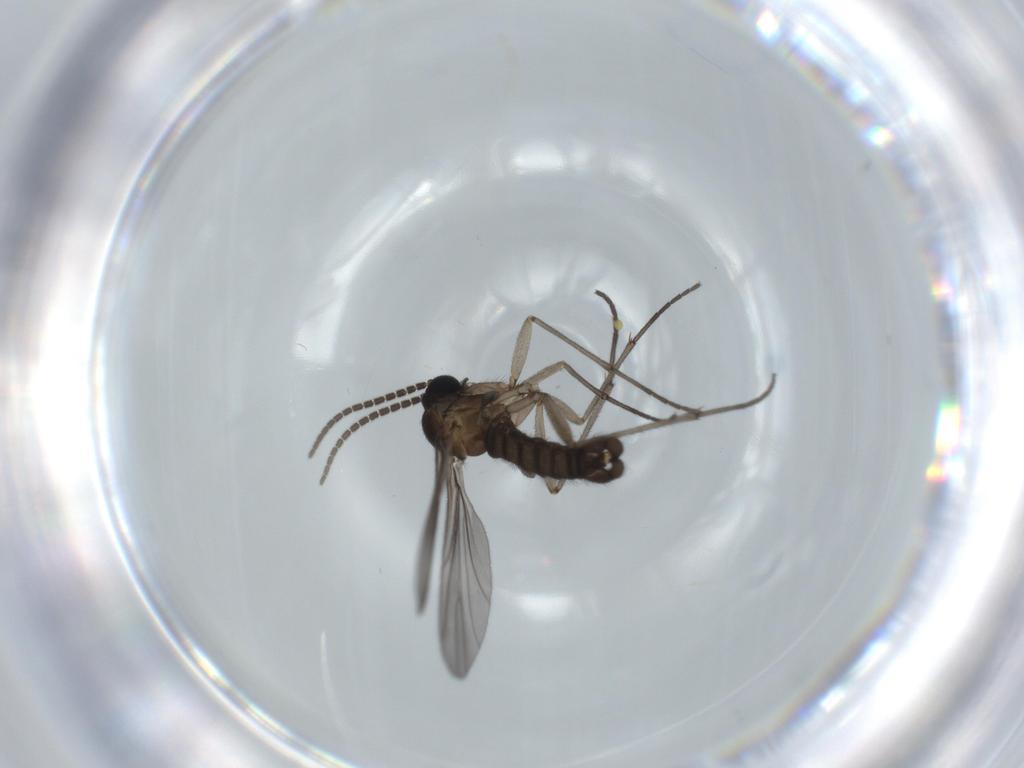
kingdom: Animalia
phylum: Arthropoda
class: Insecta
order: Diptera
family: Sciaridae
